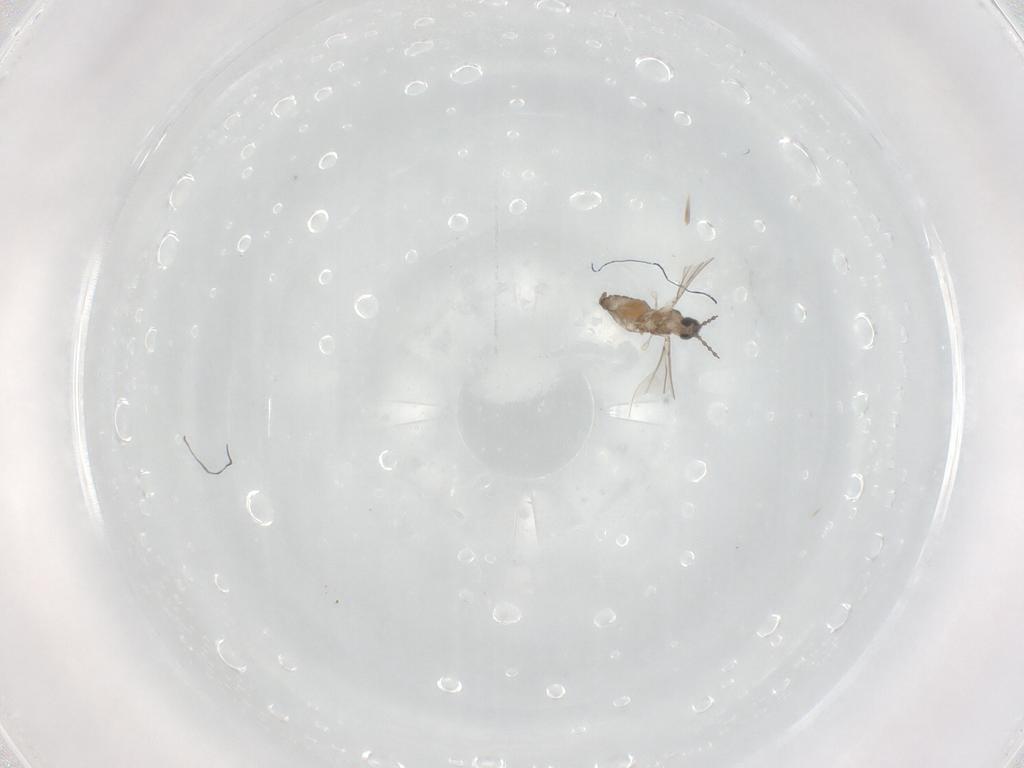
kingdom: Animalia
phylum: Arthropoda
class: Insecta
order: Diptera
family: Cecidomyiidae
